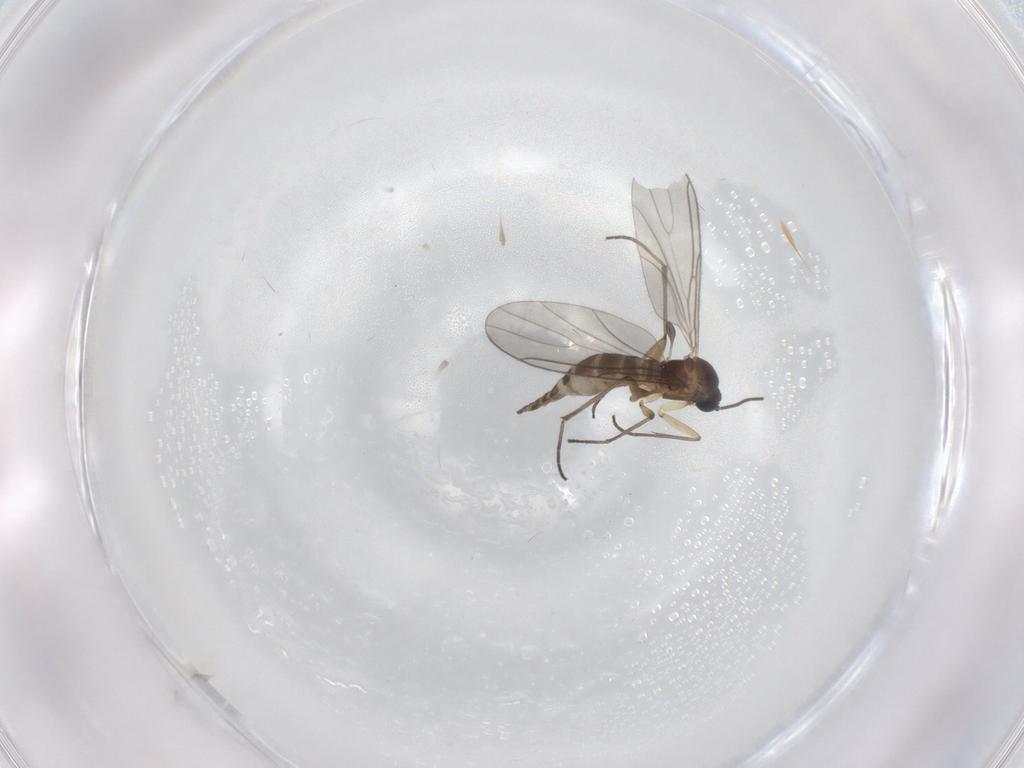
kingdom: Animalia
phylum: Arthropoda
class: Insecta
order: Diptera
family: Sciaridae
